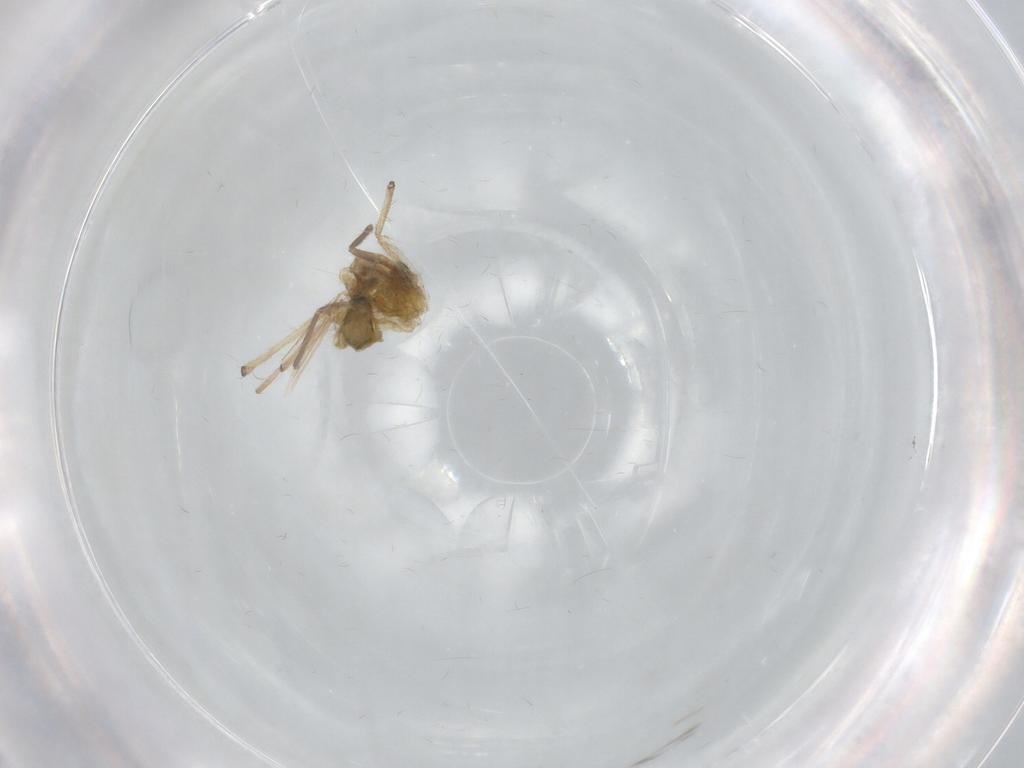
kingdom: Animalia
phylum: Arthropoda
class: Insecta
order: Diptera
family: Chironomidae
